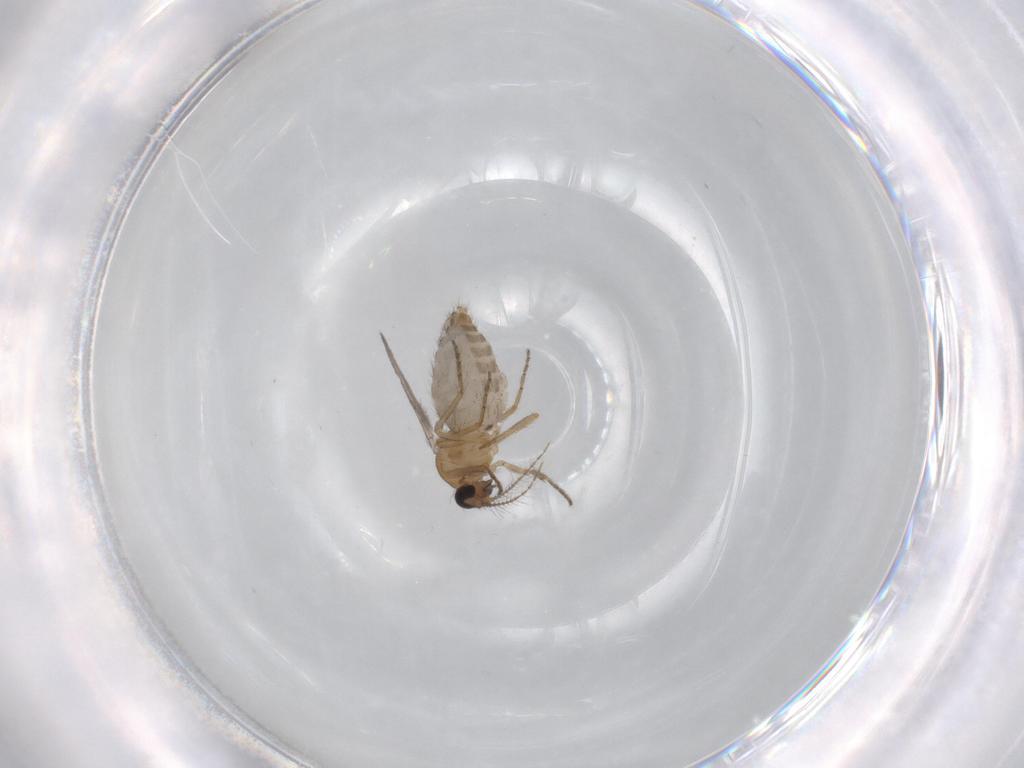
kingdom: Animalia
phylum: Arthropoda
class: Insecta
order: Diptera
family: Ceratopogonidae
